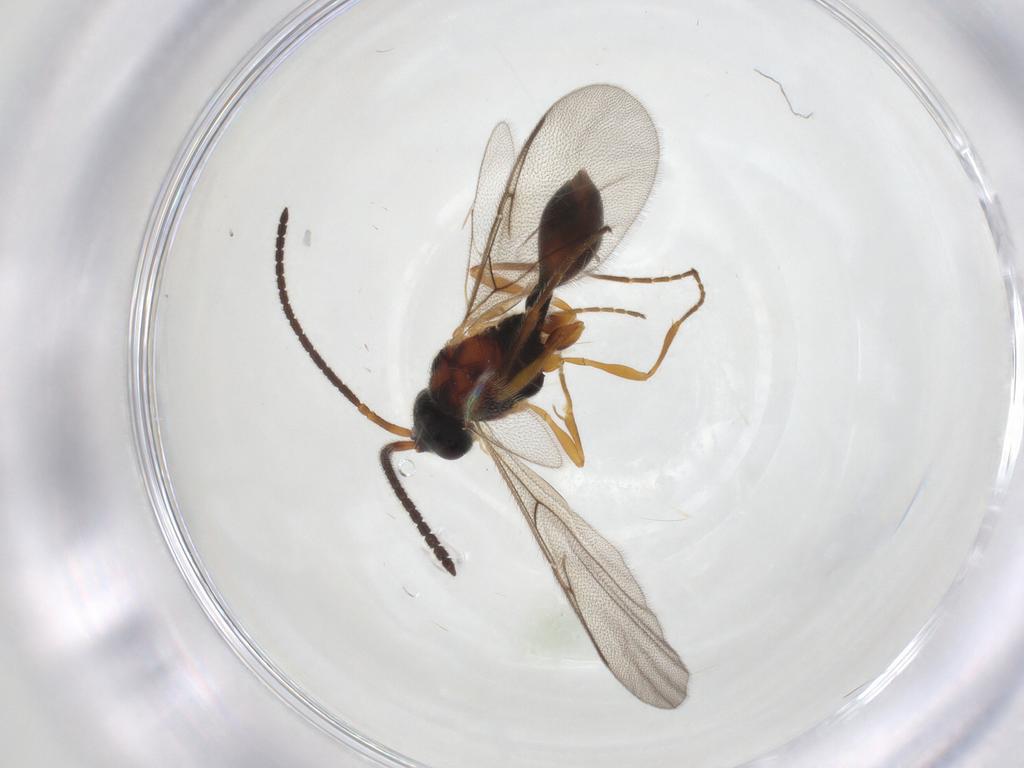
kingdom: Animalia
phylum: Arthropoda
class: Insecta
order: Hymenoptera
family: Diapriidae
